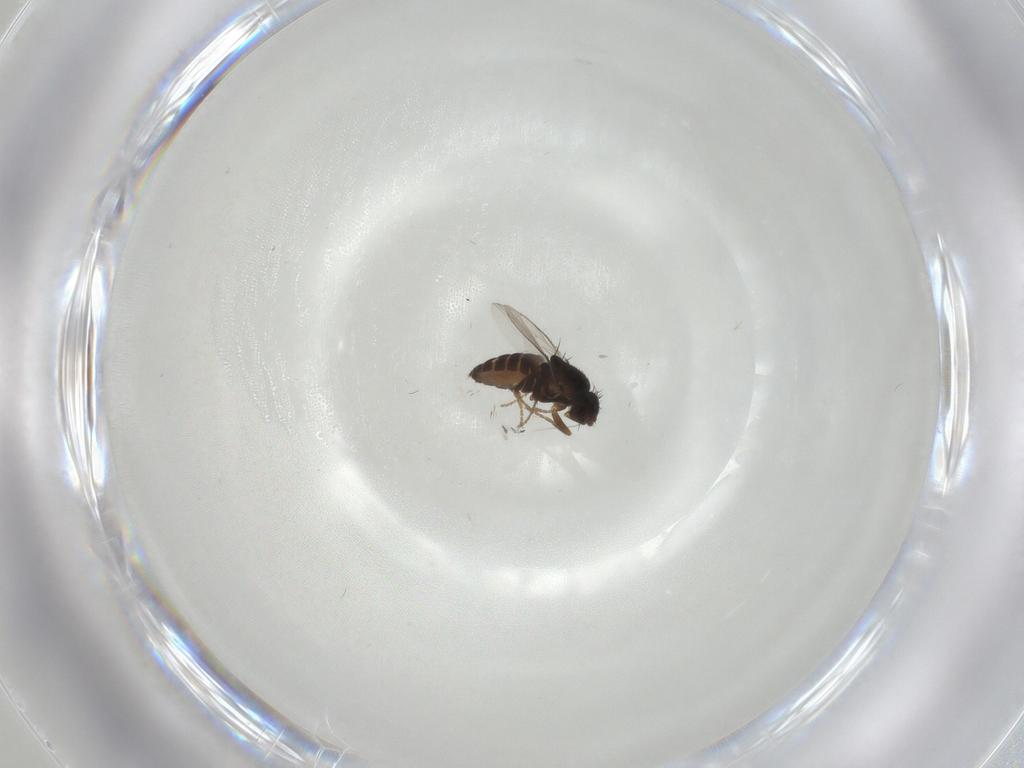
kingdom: Animalia
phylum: Arthropoda
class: Insecta
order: Diptera
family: Sphaeroceridae
